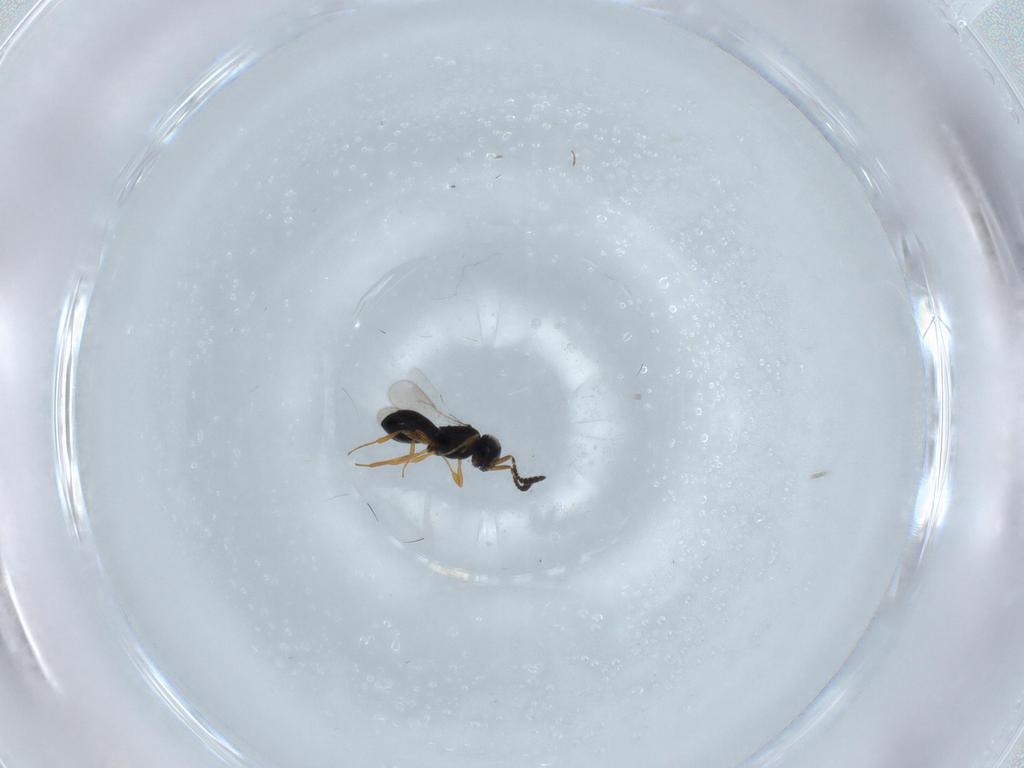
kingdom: Animalia
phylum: Arthropoda
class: Insecta
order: Hymenoptera
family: Scelionidae
